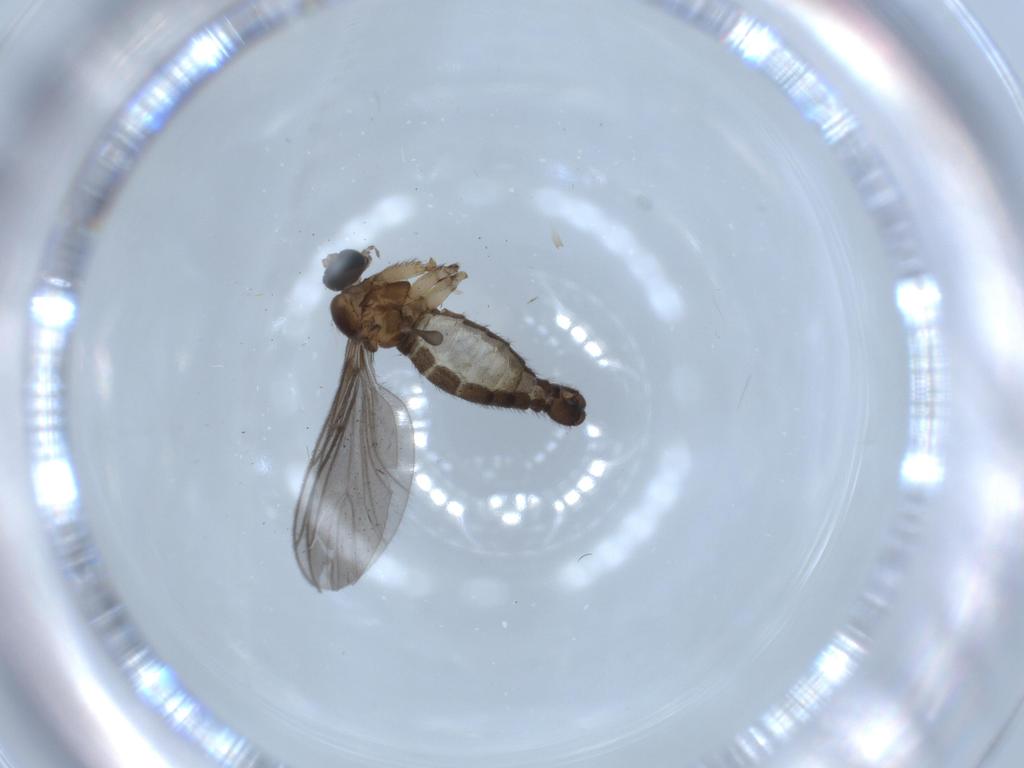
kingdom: Animalia
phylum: Arthropoda
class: Insecta
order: Diptera
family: Sciaridae
